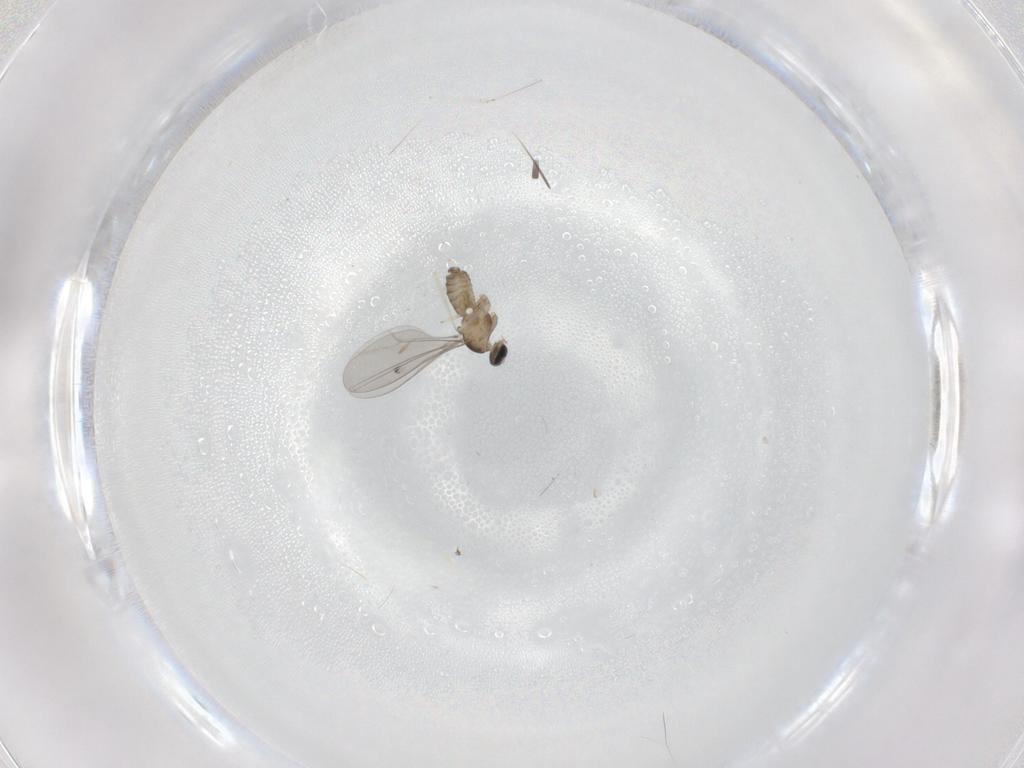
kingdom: Animalia
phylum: Arthropoda
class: Insecta
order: Diptera
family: Cecidomyiidae
